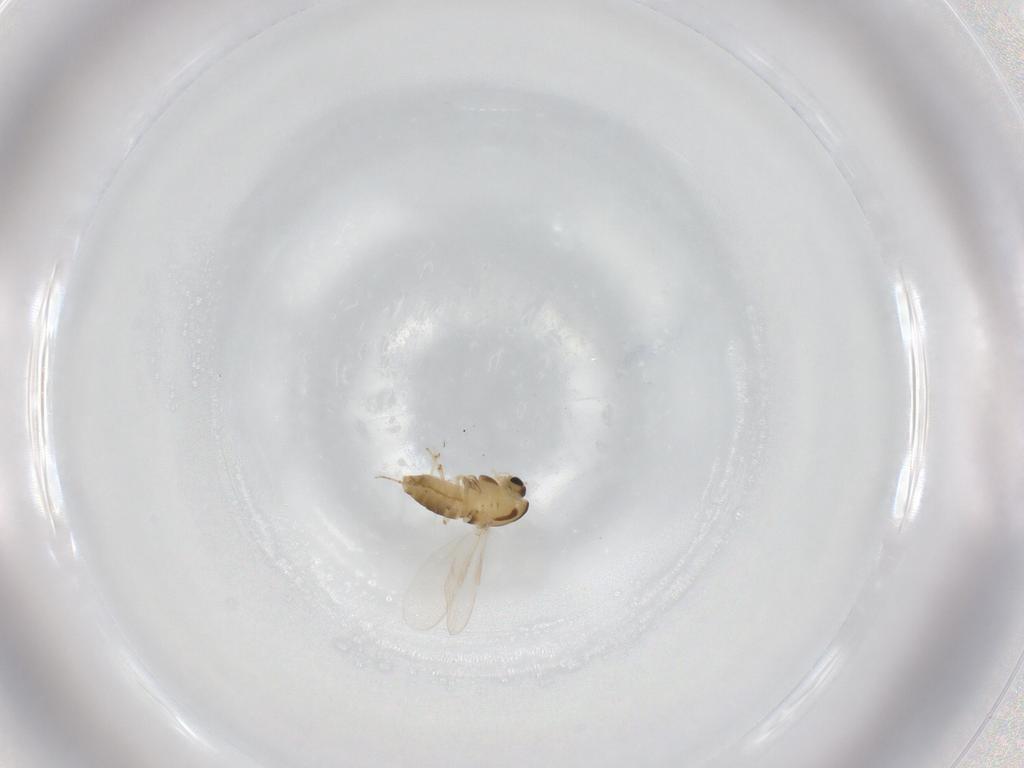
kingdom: Animalia
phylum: Arthropoda
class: Insecta
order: Diptera
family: Chironomidae
